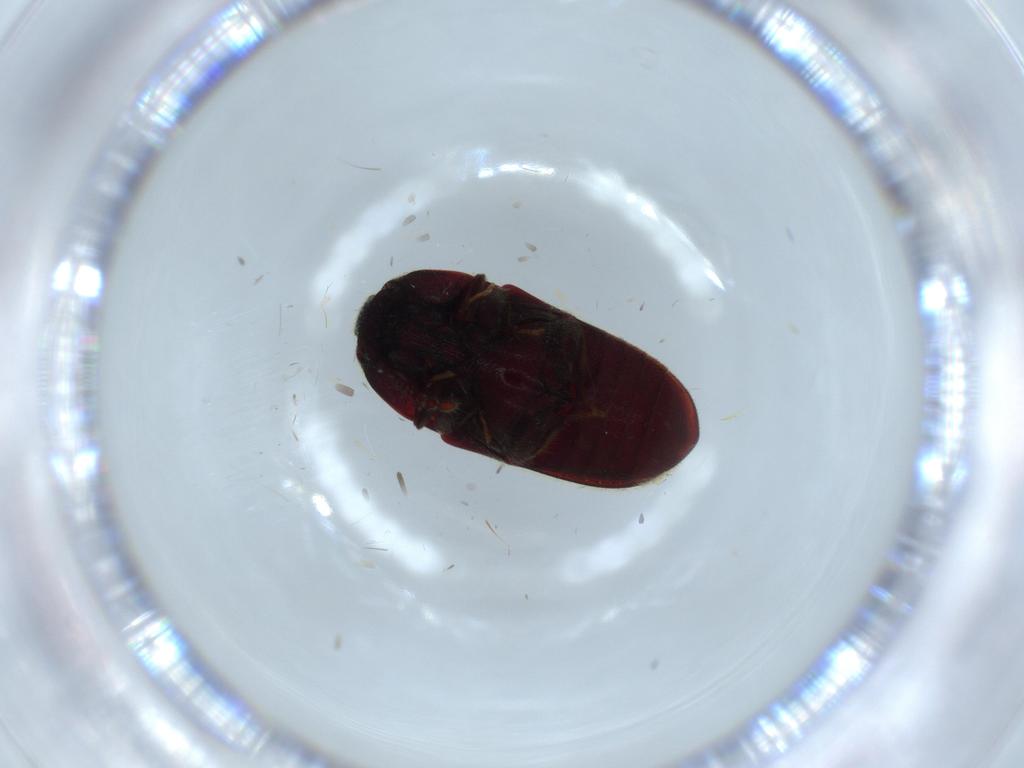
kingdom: Animalia
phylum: Arthropoda
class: Insecta
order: Coleoptera
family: Throscidae
